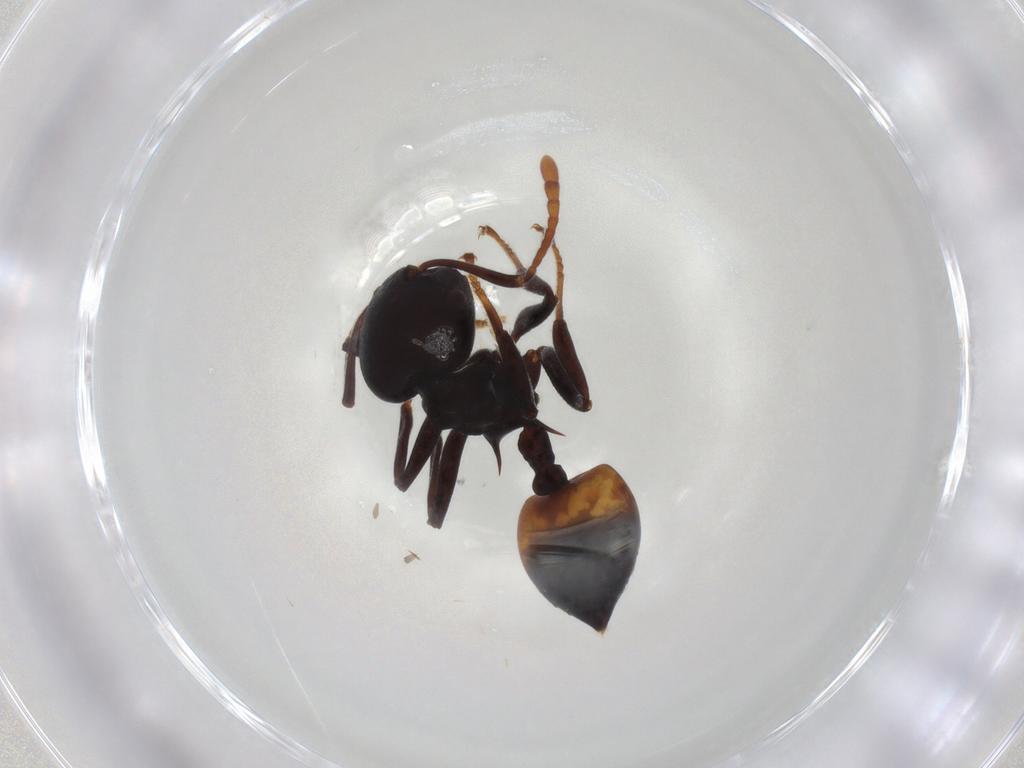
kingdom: Animalia
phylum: Arthropoda
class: Insecta
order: Hymenoptera
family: Formicidae
